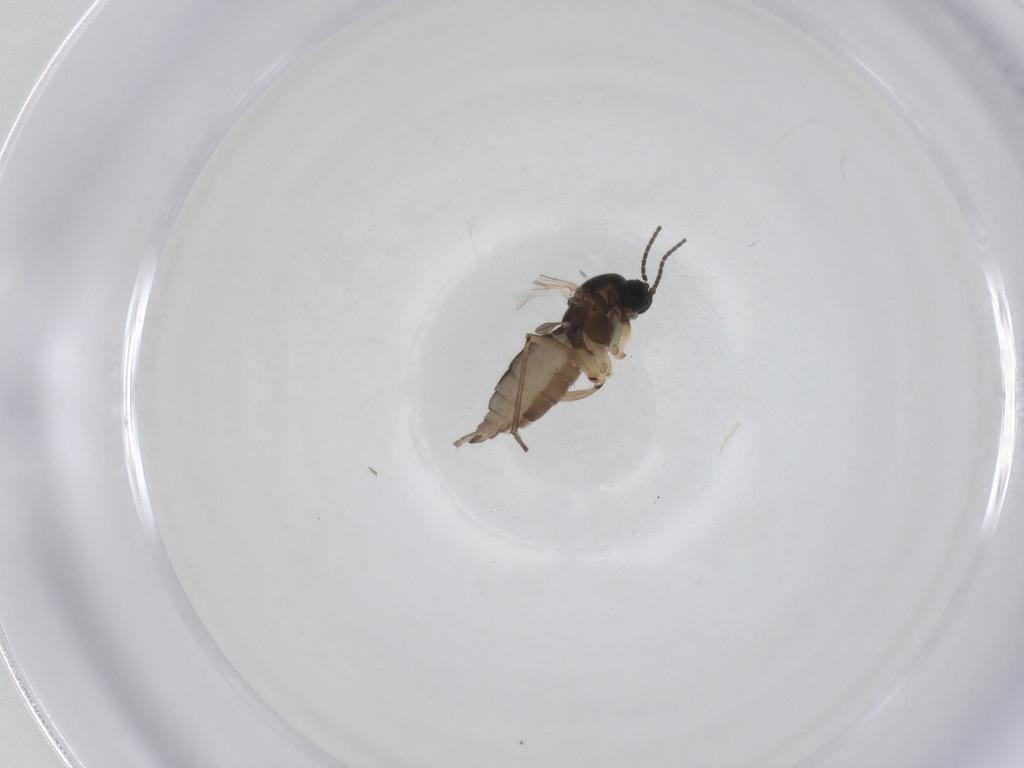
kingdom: Animalia
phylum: Arthropoda
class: Insecta
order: Diptera
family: Sciaridae
